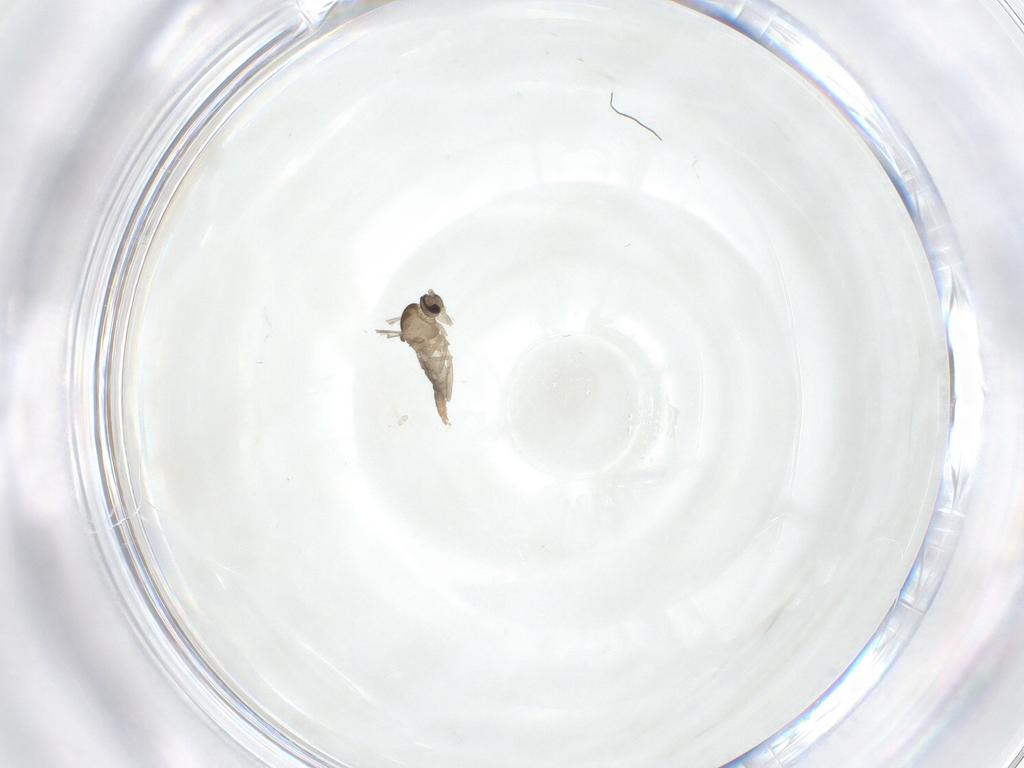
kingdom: Animalia
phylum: Arthropoda
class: Insecta
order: Diptera
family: Cecidomyiidae
